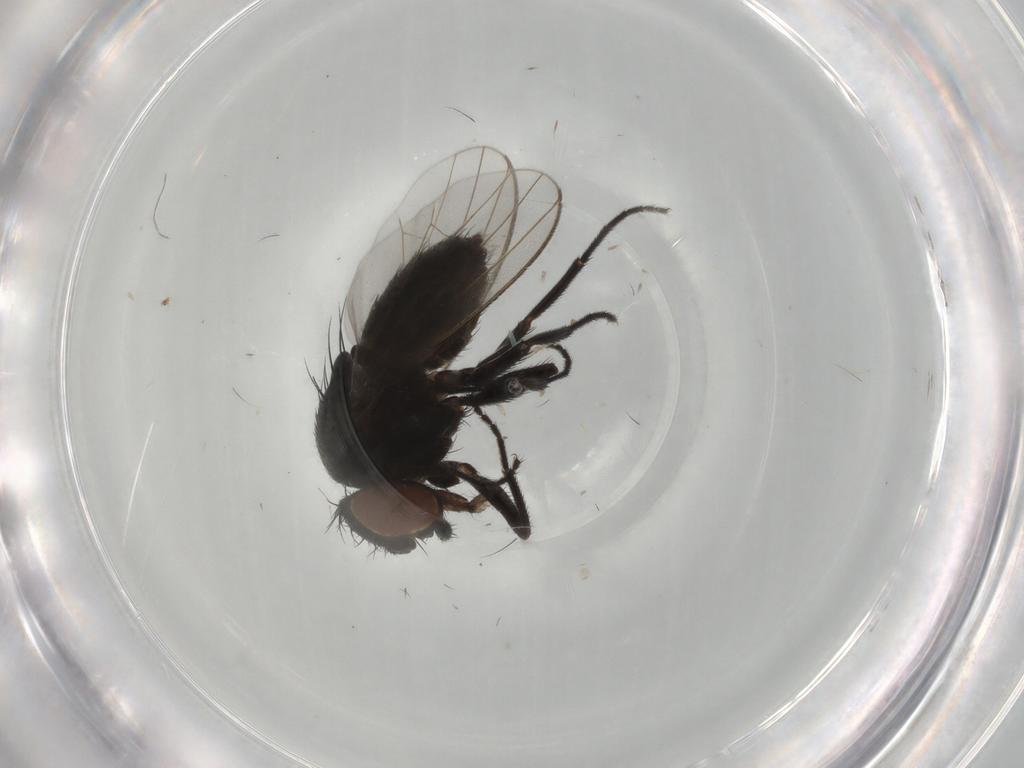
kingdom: Animalia
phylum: Arthropoda
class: Insecta
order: Diptera
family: Milichiidae
